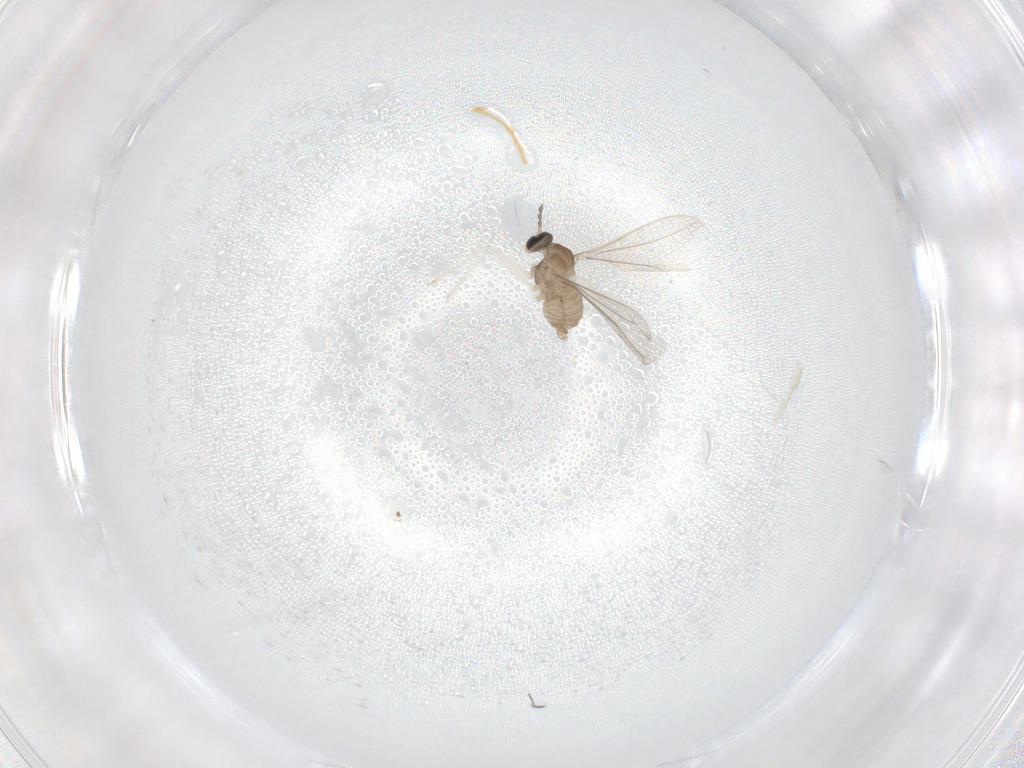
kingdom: Animalia
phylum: Arthropoda
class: Insecta
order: Diptera
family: Cecidomyiidae
